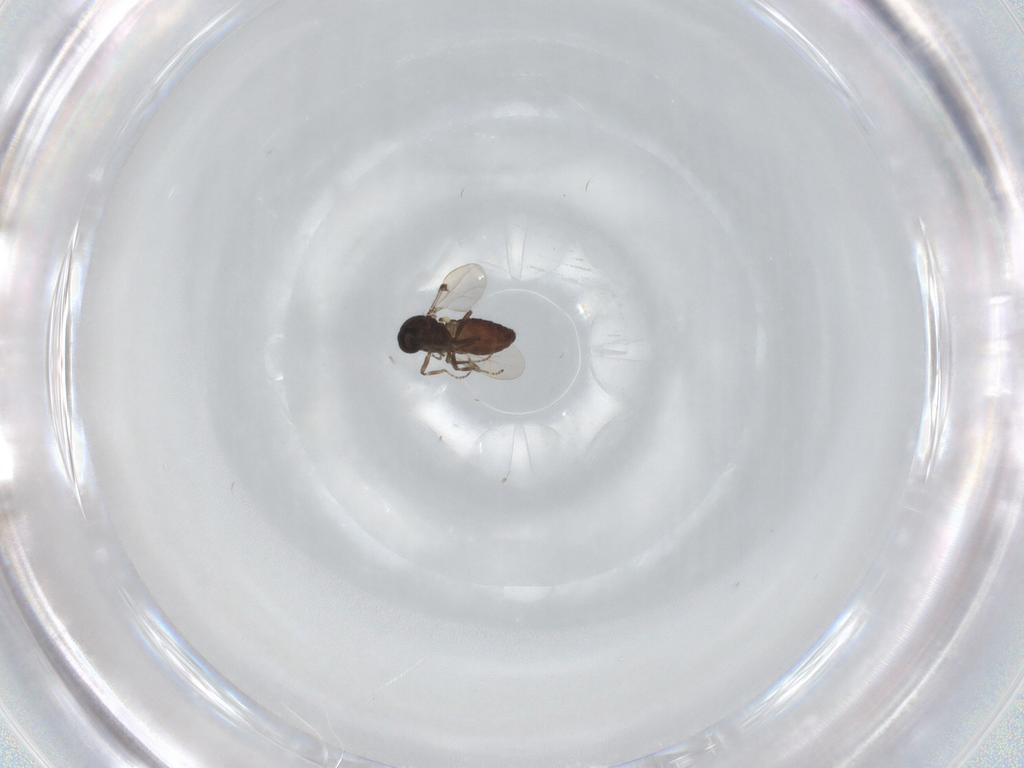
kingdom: Animalia
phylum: Arthropoda
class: Insecta
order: Diptera
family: Ceratopogonidae
